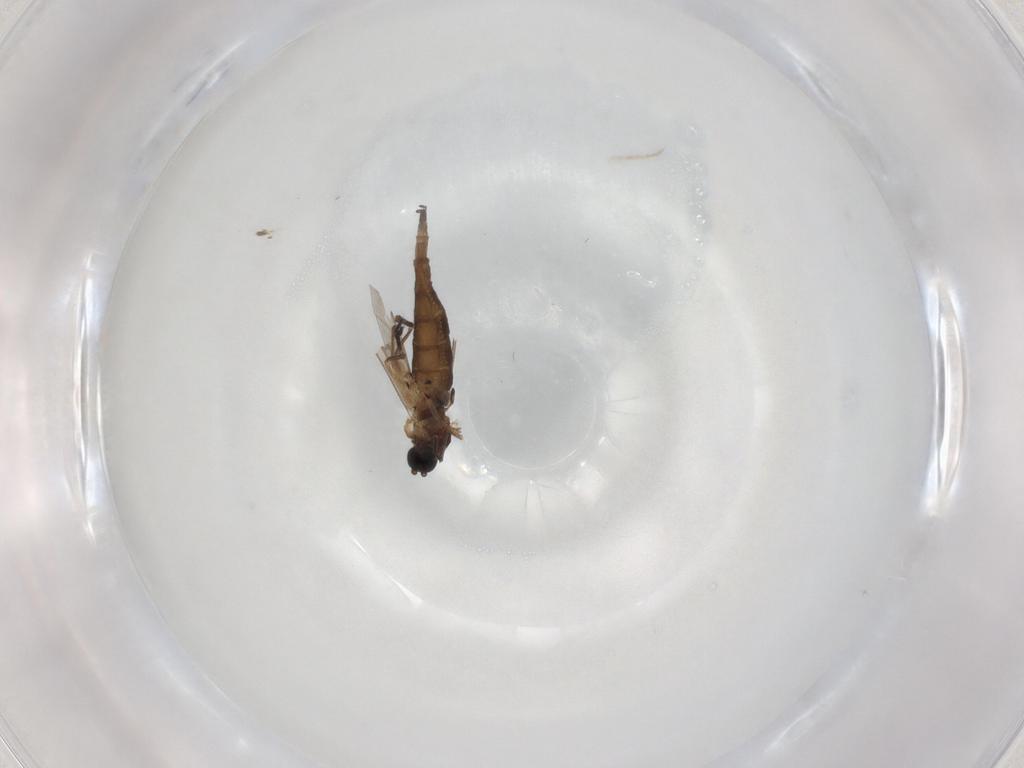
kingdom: Animalia
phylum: Arthropoda
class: Insecta
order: Diptera
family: Sciaridae
